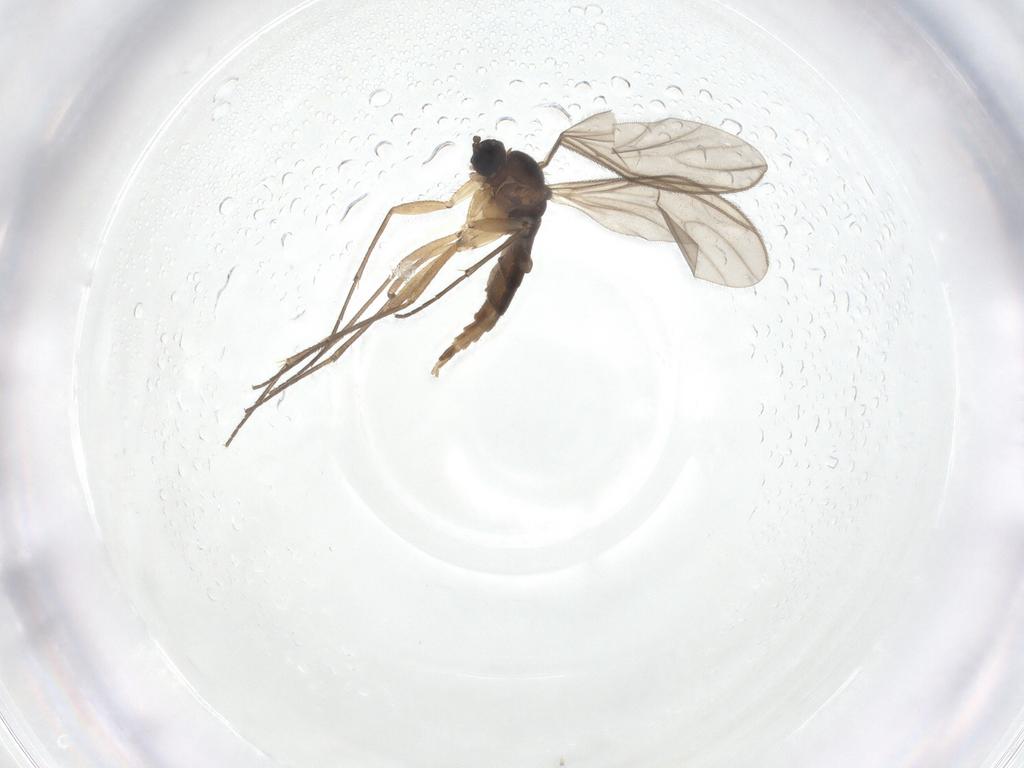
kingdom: Animalia
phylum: Arthropoda
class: Insecta
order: Diptera
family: Sciaridae
